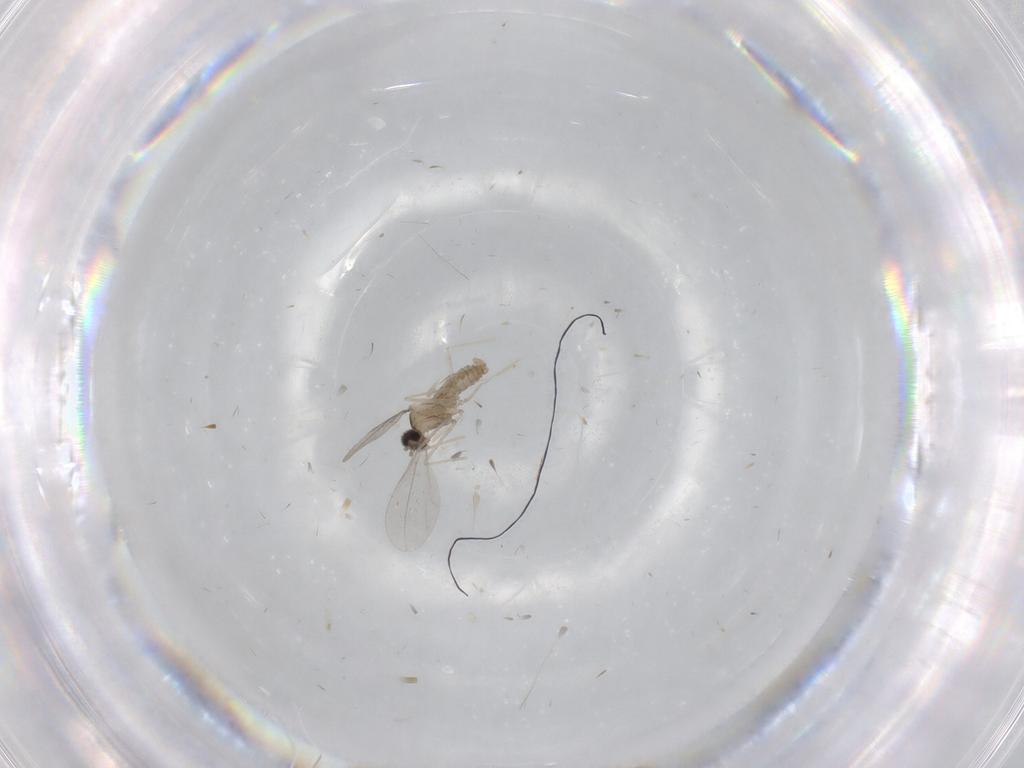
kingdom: Animalia
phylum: Arthropoda
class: Insecta
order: Diptera
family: Cecidomyiidae
